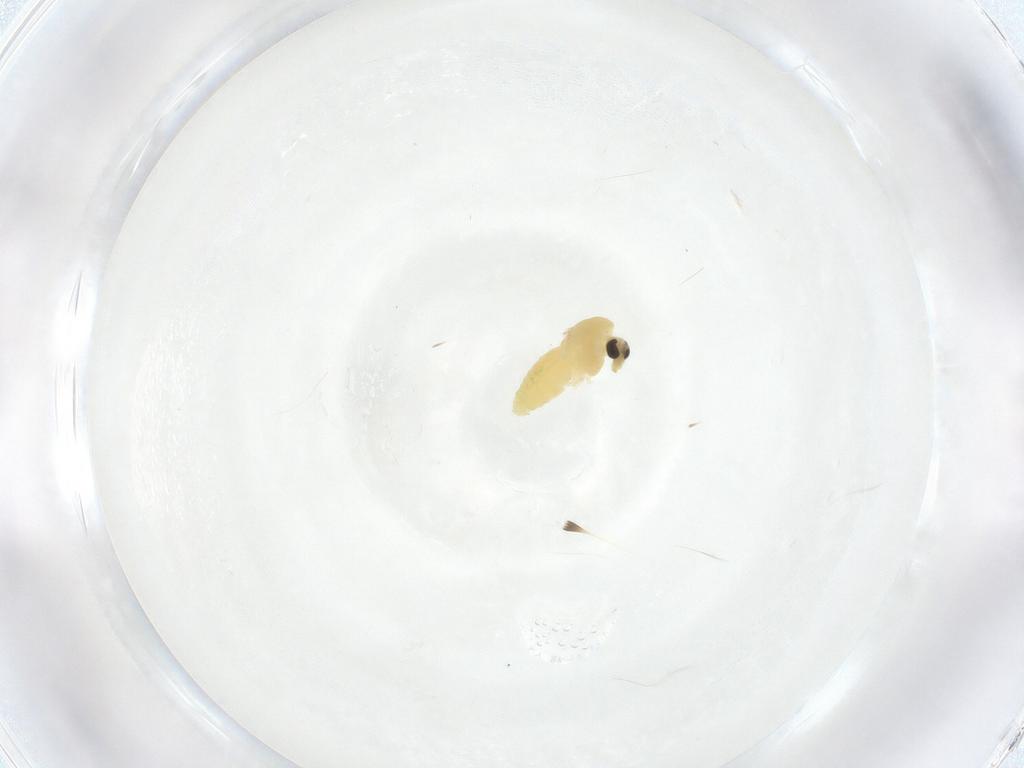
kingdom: Animalia
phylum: Arthropoda
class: Insecta
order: Diptera
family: Chironomidae
